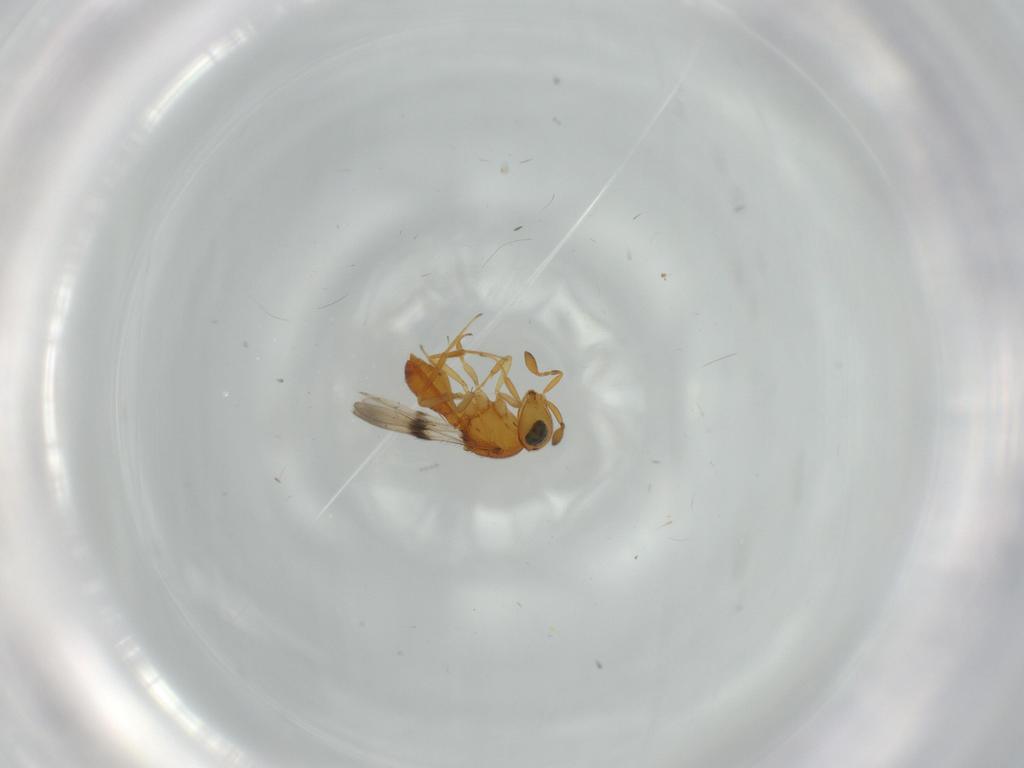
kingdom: Animalia
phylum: Arthropoda
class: Insecta
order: Hymenoptera
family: Scelionidae
